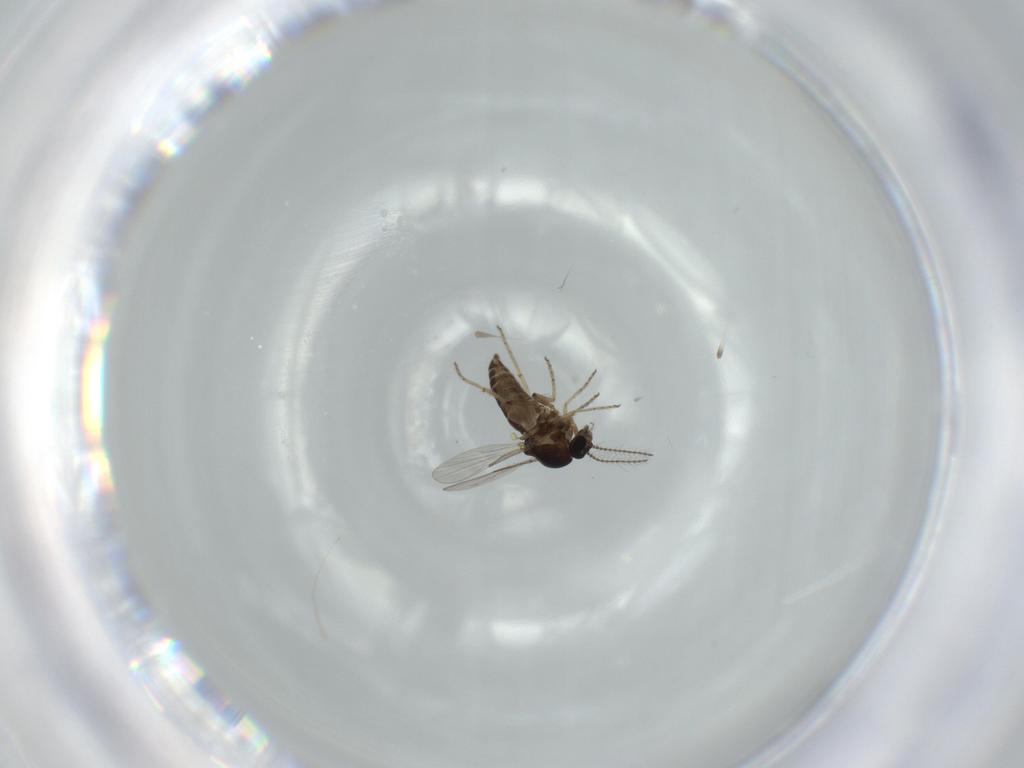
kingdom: Animalia
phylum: Arthropoda
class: Insecta
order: Diptera
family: Ceratopogonidae
